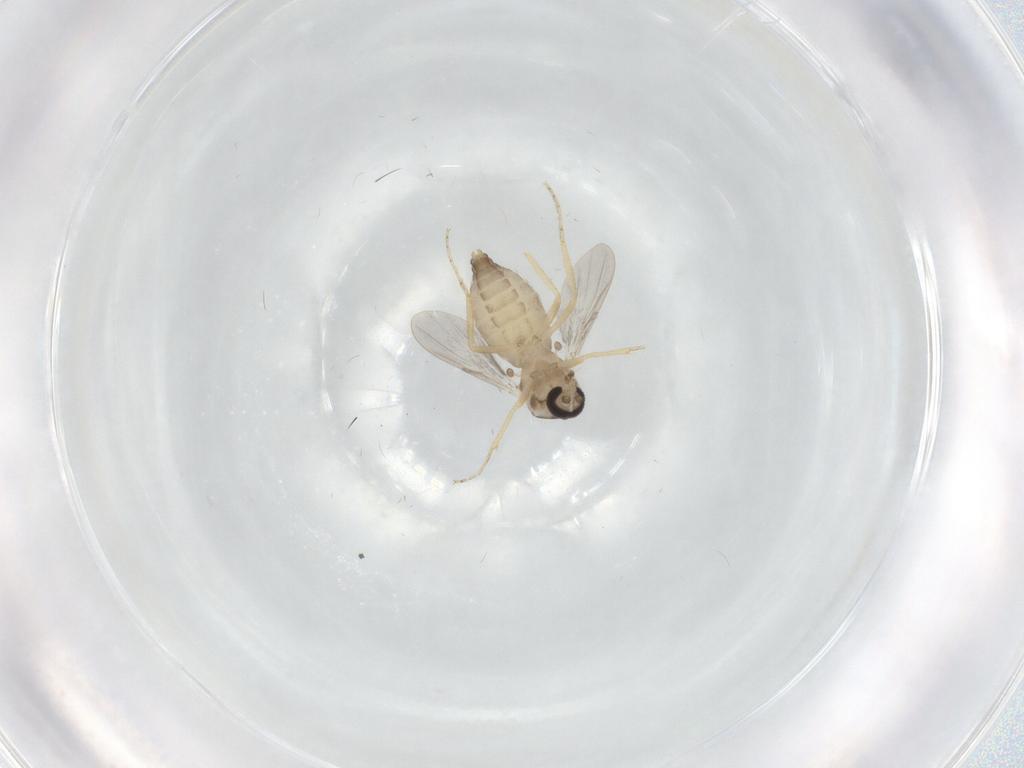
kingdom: Animalia
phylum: Arthropoda
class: Insecta
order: Diptera
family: Ceratopogonidae
